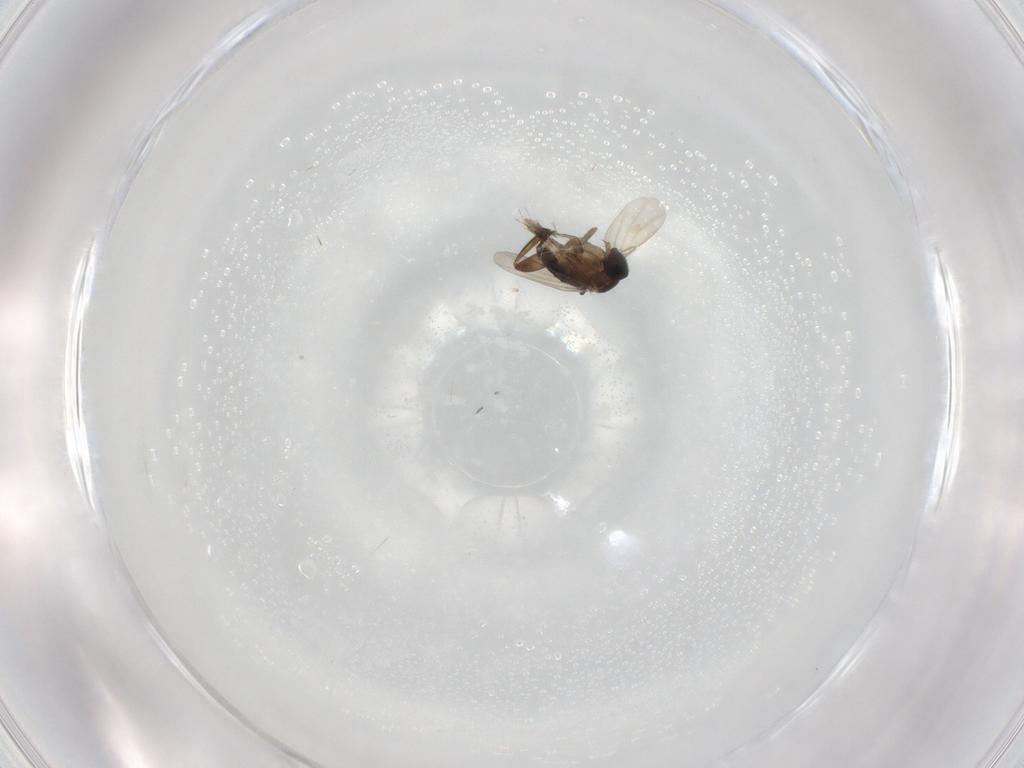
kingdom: Animalia
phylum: Arthropoda
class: Insecta
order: Diptera
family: Phoridae
